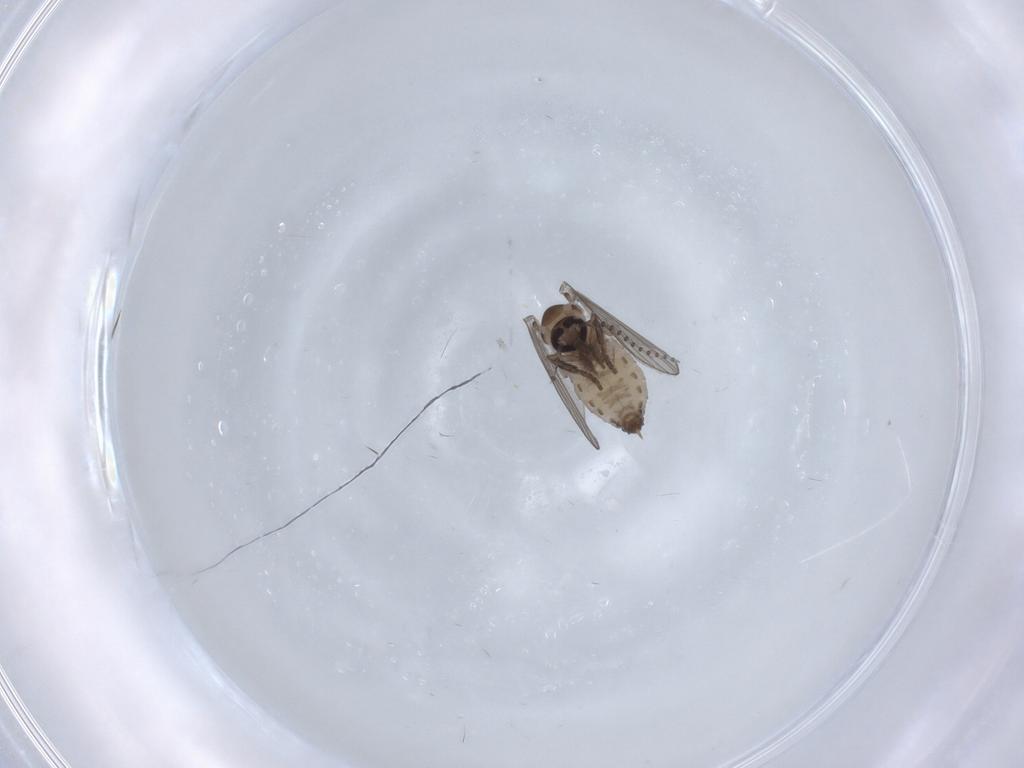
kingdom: Animalia
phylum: Arthropoda
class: Insecta
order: Diptera
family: Psychodidae
